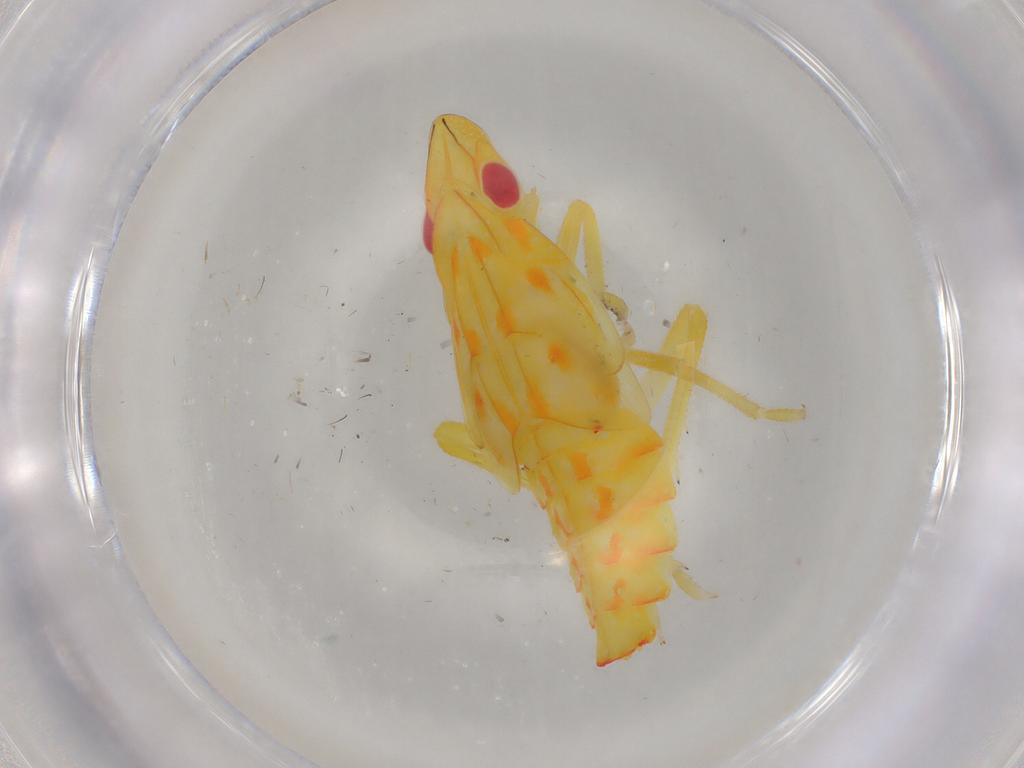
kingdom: Animalia
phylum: Arthropoda
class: Insecta
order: Hemiptera
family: Tropiduchidae
